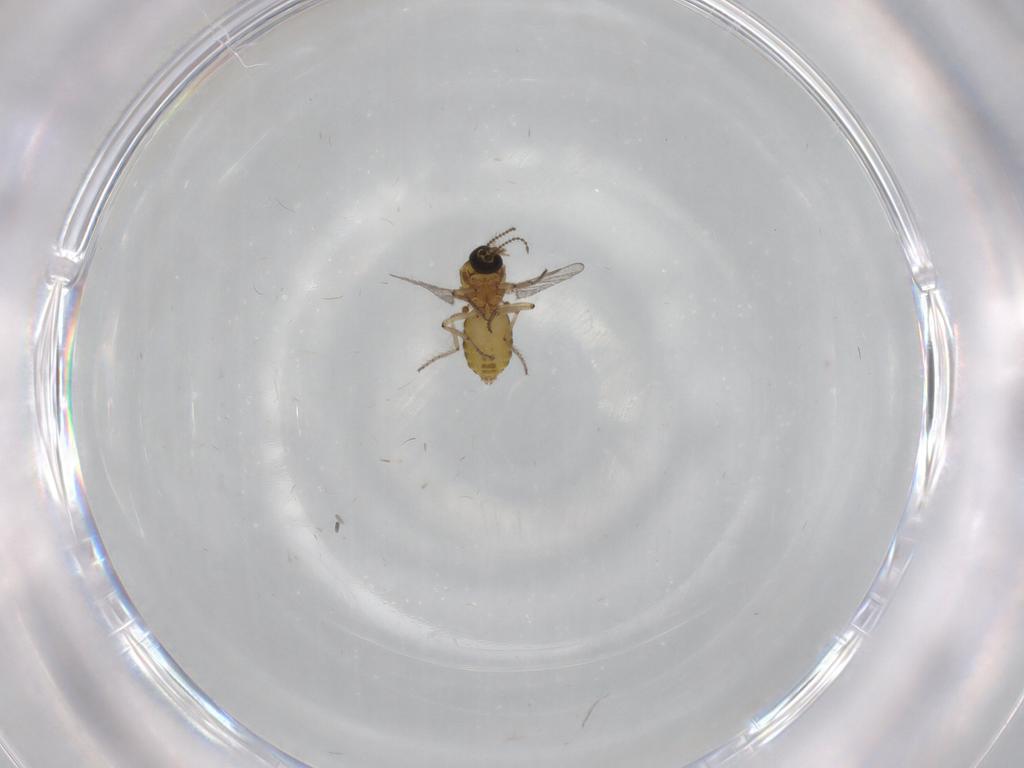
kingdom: Animalia
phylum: Arthropoda
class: Insecta
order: Diptera
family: Ceratopogonidae
